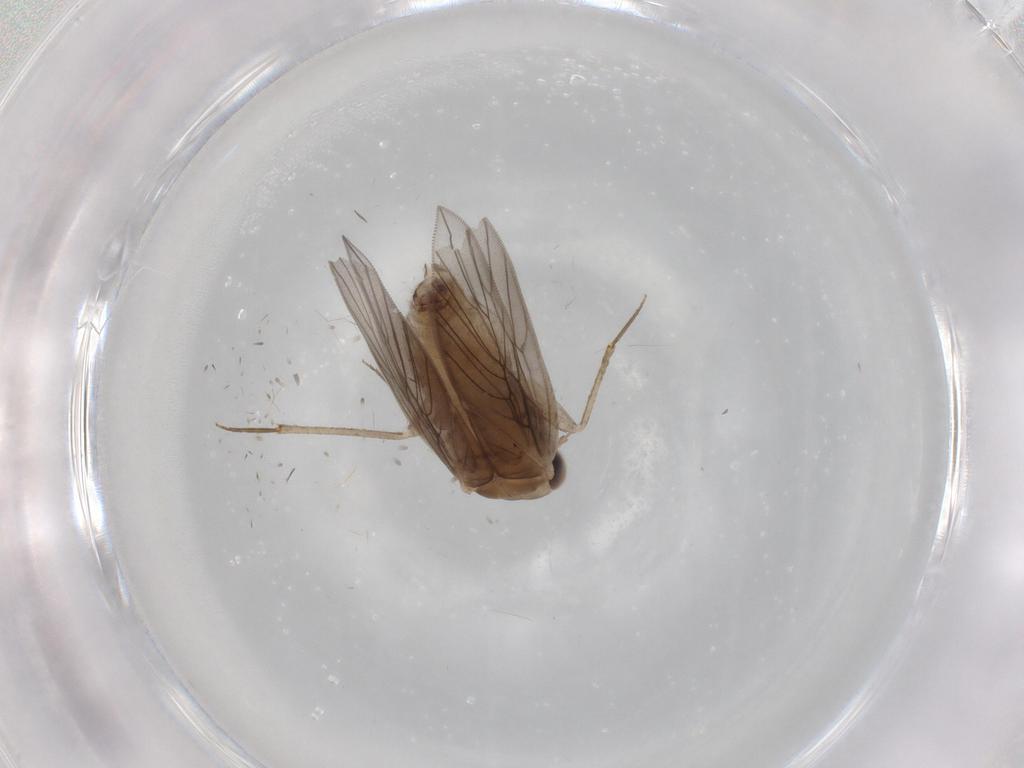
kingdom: Animalia
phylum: Arthropoda
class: Insecta
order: Psocodea
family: Lepidopsocidae
